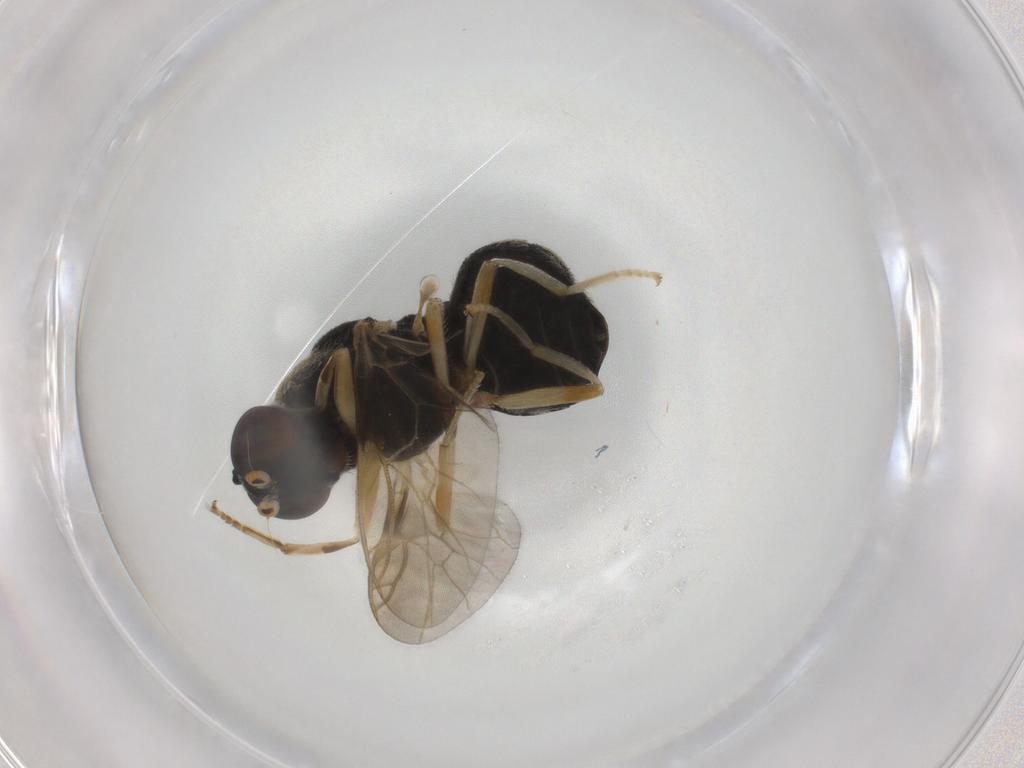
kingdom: Animalia
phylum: Arthropoda
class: Insecta
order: Diptera
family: Stratiomyidae
